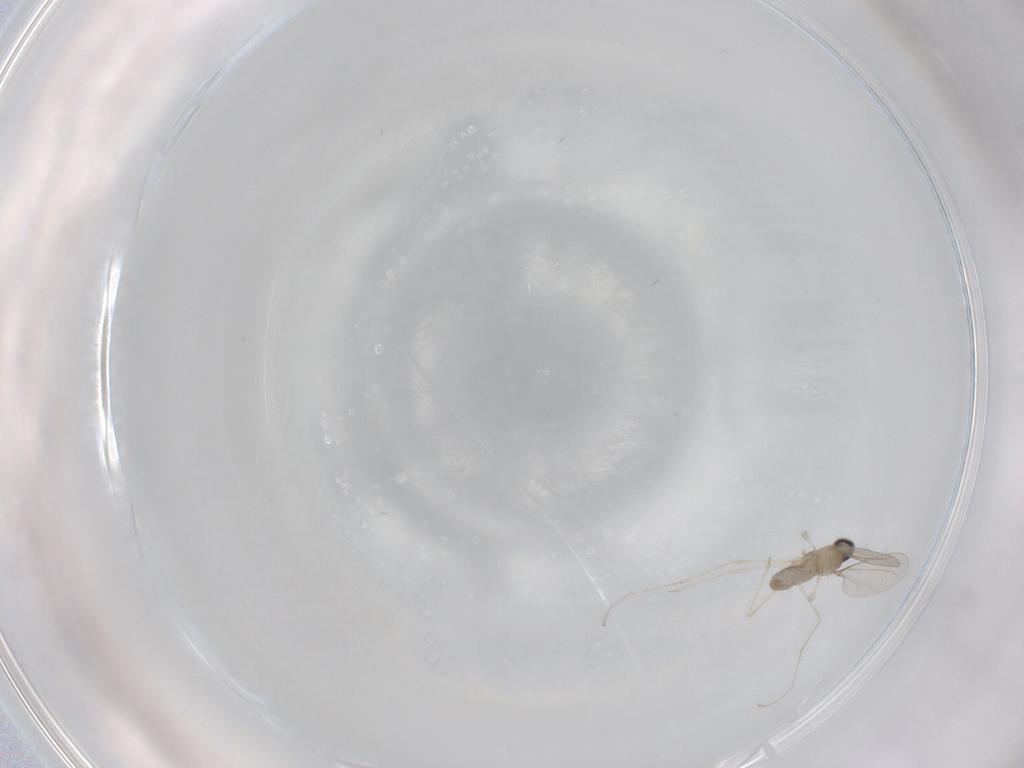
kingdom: Animalia
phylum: Arthropoda
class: Insecta
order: Diptera
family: Cecidomyiidae
